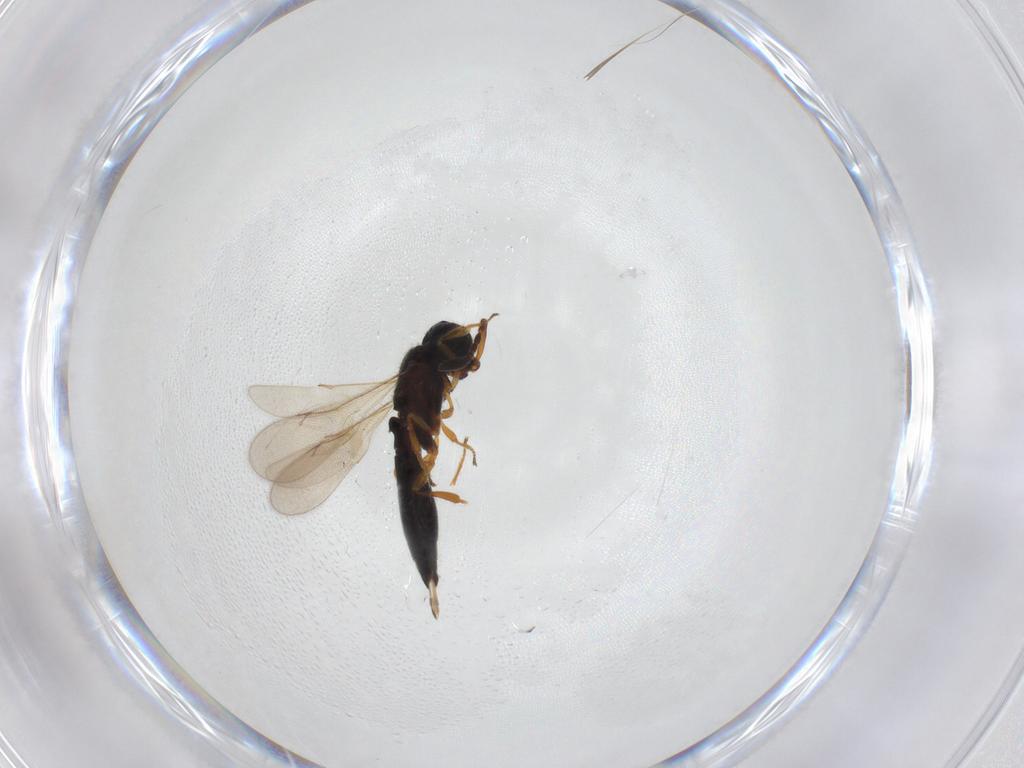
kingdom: Animalia
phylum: Arthropoda
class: Insecta
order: Hymenoptera
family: Scelionidae
